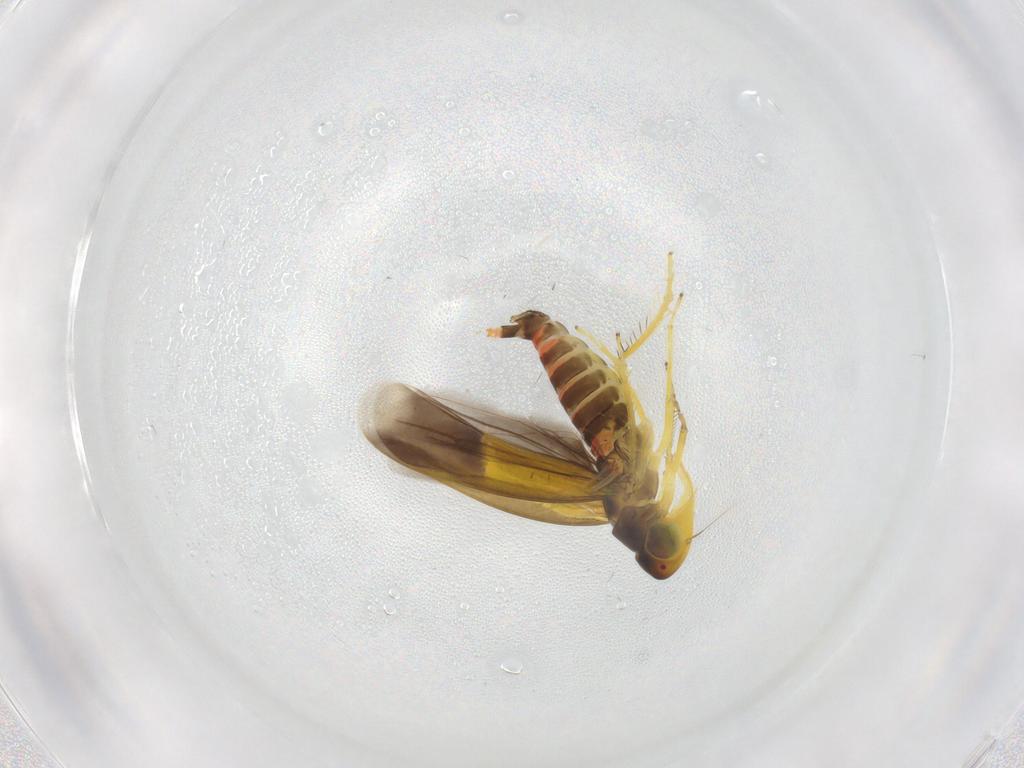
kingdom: Animalia
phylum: Arthropoda
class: Insecta
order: Hemiptera
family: Cicadellidae
